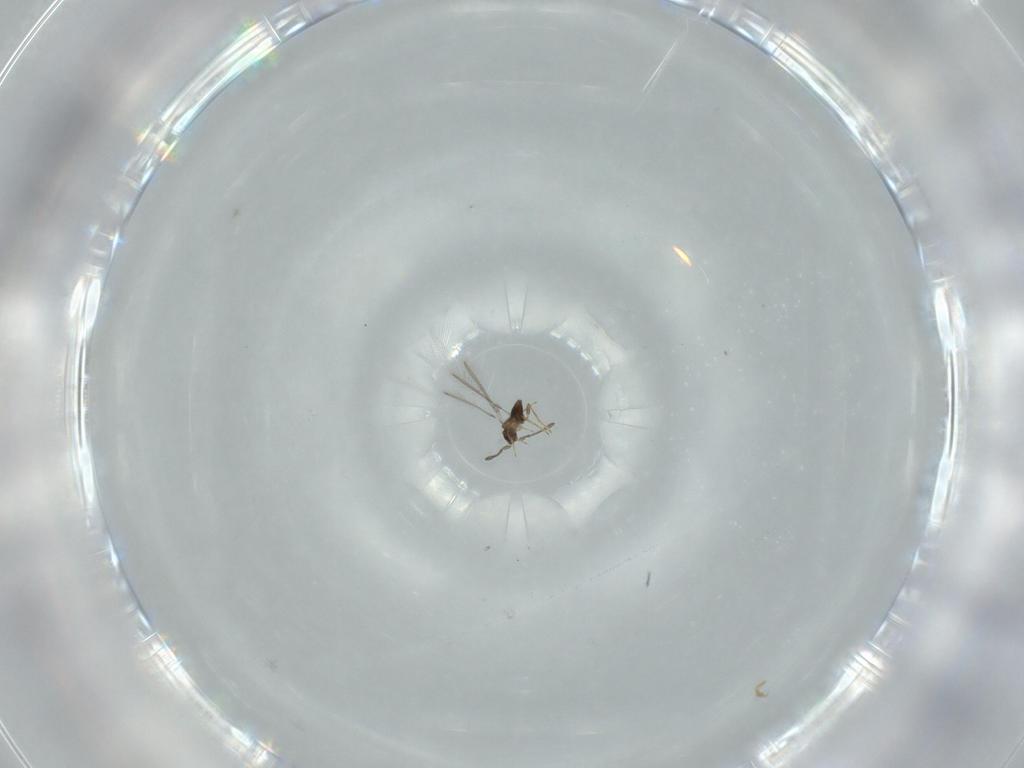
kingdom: Animalia
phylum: Arthropoda
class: Insecta
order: Hymenoptera
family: Mymaridae
